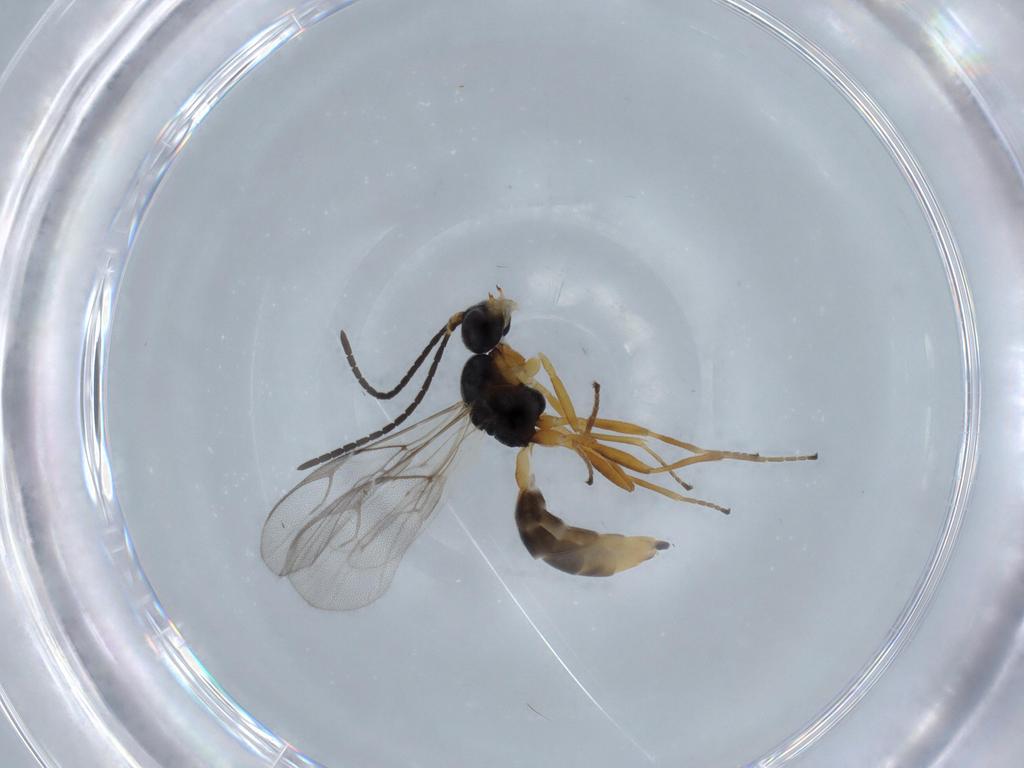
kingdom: Animalia
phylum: Arthropoda
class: Insecta
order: Hymenoptera
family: Braconidae
